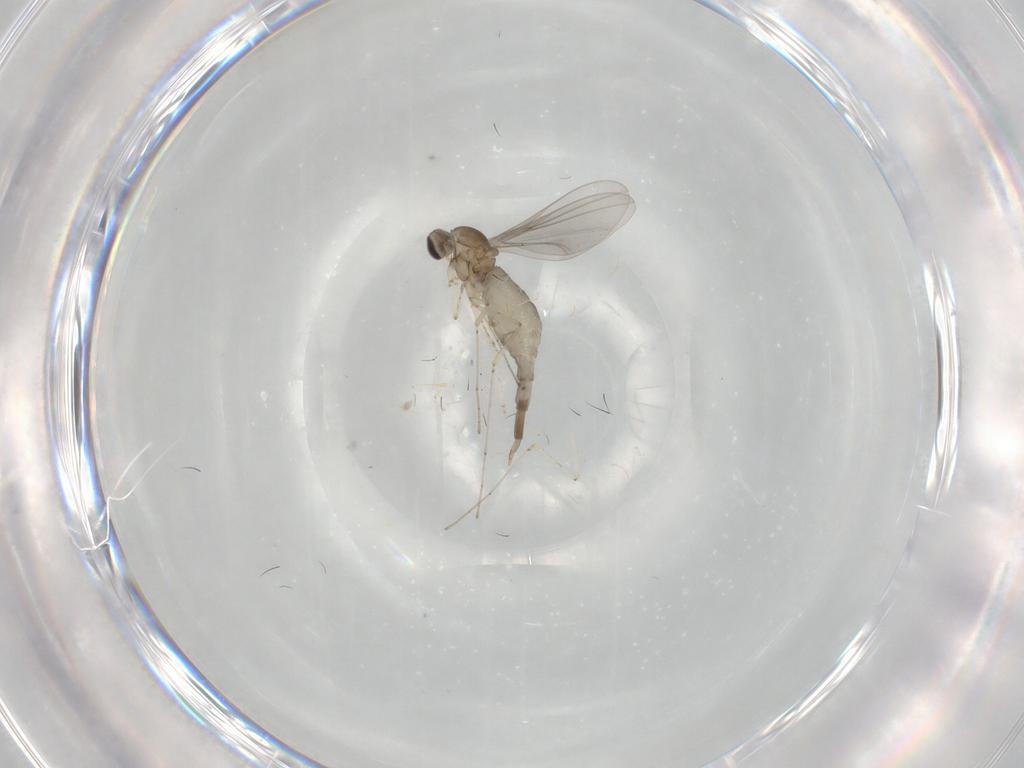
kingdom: Animalia
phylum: Arthropoda
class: Insecta
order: Diptera
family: Cecidomyiidae
